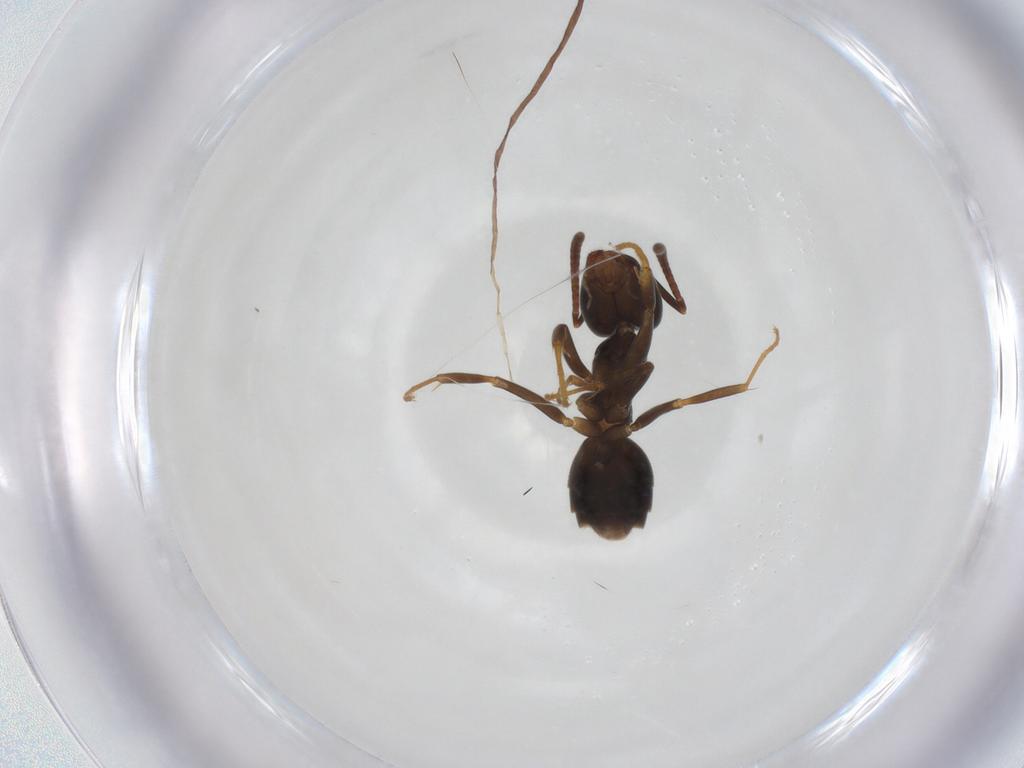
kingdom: Animalia
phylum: Arthropoda
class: Insecta
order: Hymenoptera
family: Formicidae
